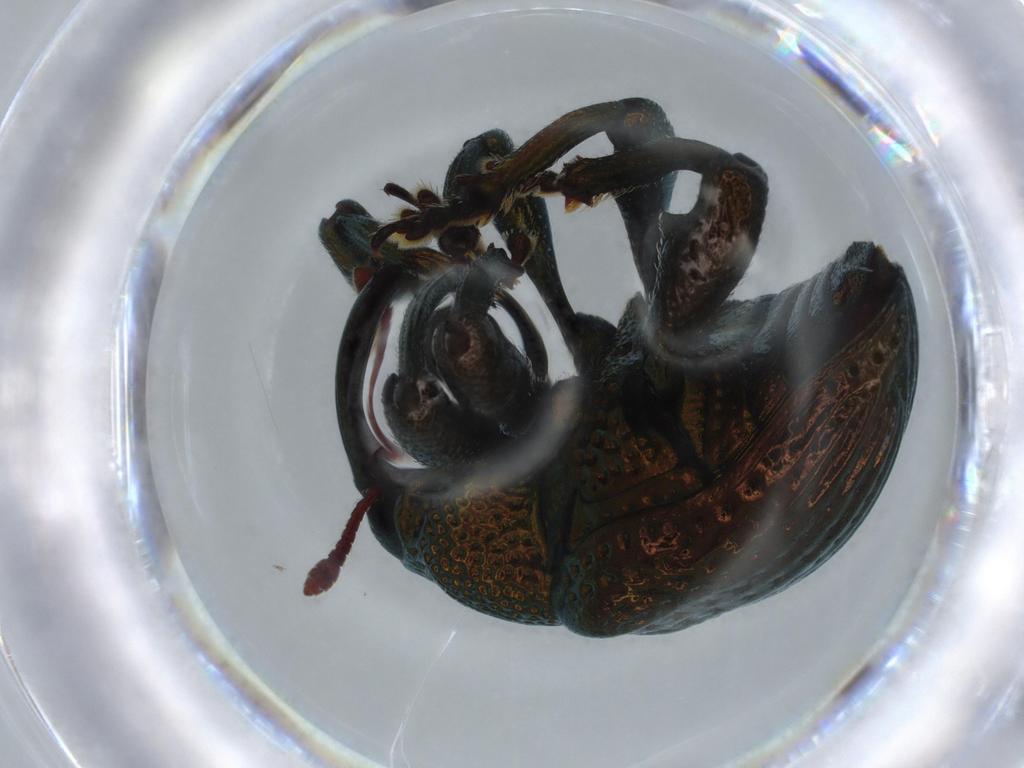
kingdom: Animalia
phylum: Arthropoda
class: Insecta
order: Coleoptera
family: Curculionidae
